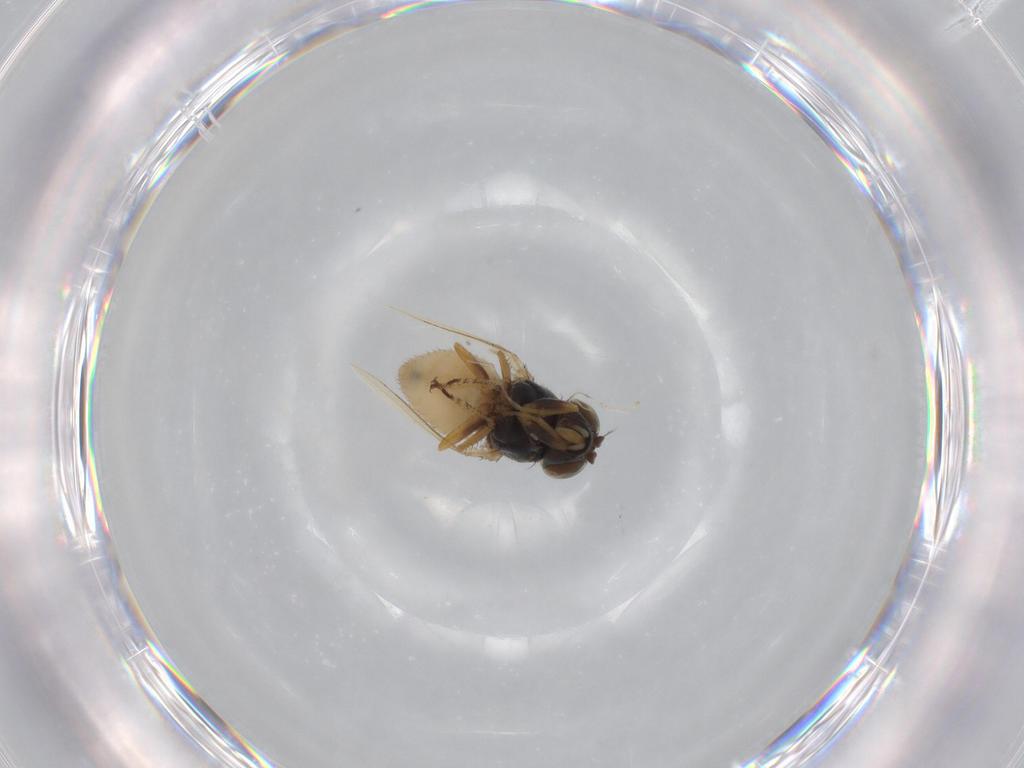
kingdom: Animalia
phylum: Arthropoda
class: Insecta
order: Diptera
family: Ephydridae
